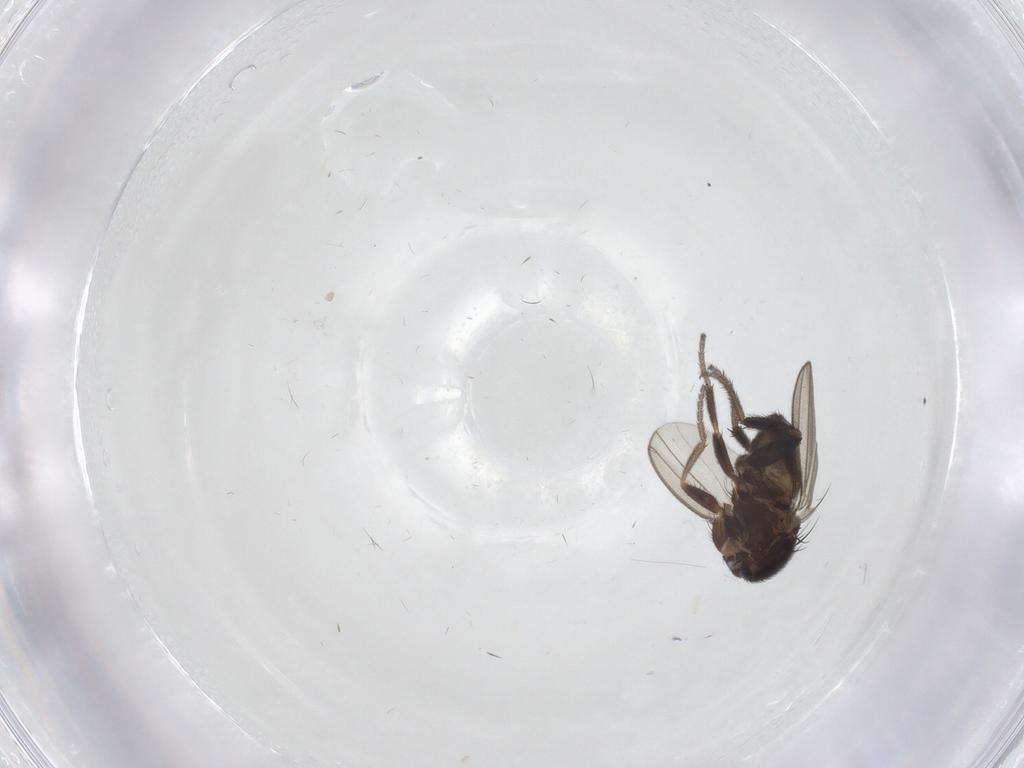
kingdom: Animalia
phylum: Arthropoda
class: Insecta
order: Diptera
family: Milichiidae
